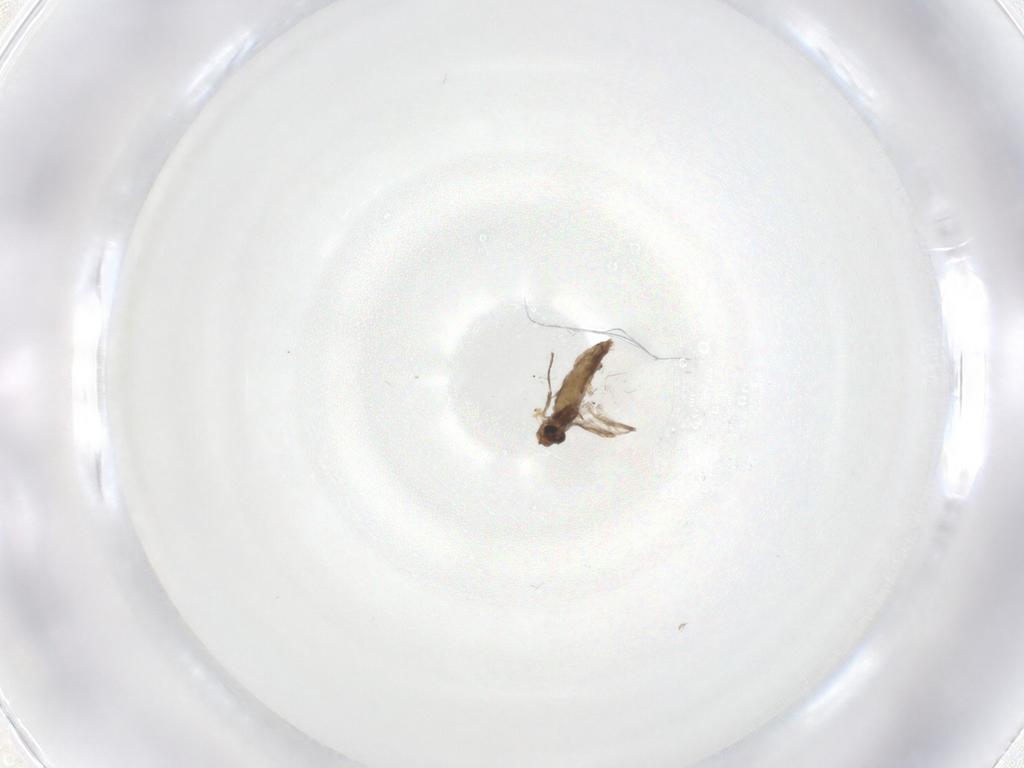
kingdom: Animalia
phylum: Arthropoda
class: Insecta
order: Diptera
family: Chironomidae
